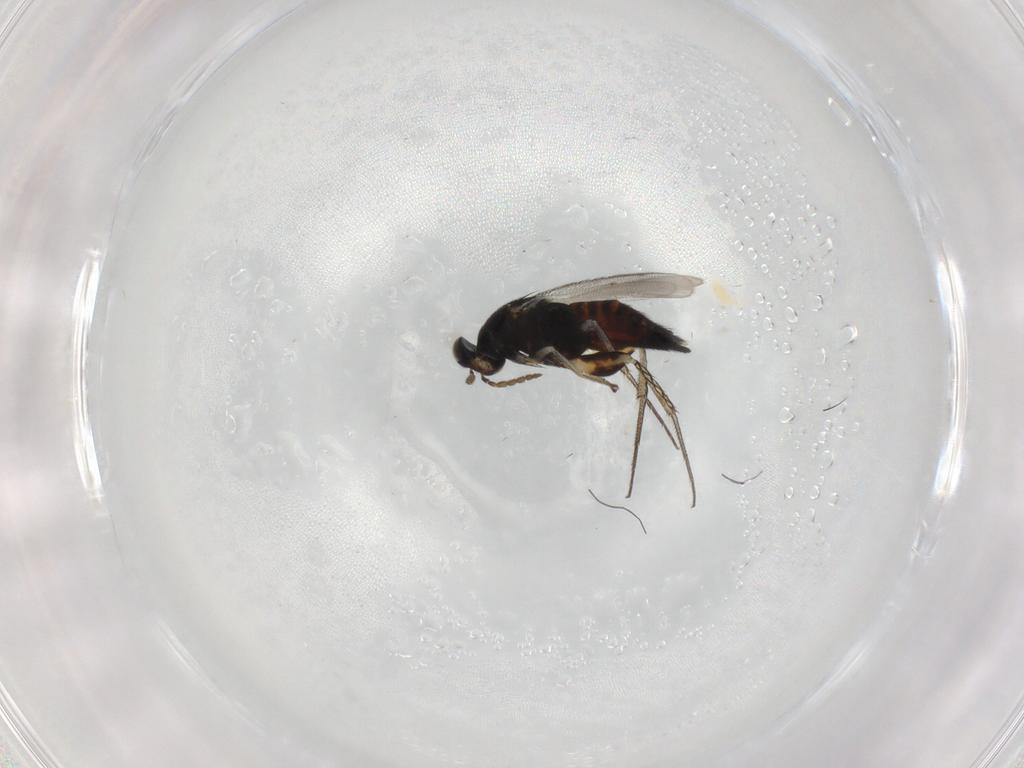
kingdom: Animalia
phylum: Arthropoda
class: Insecta
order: Hymenoptera
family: Eulophidae
